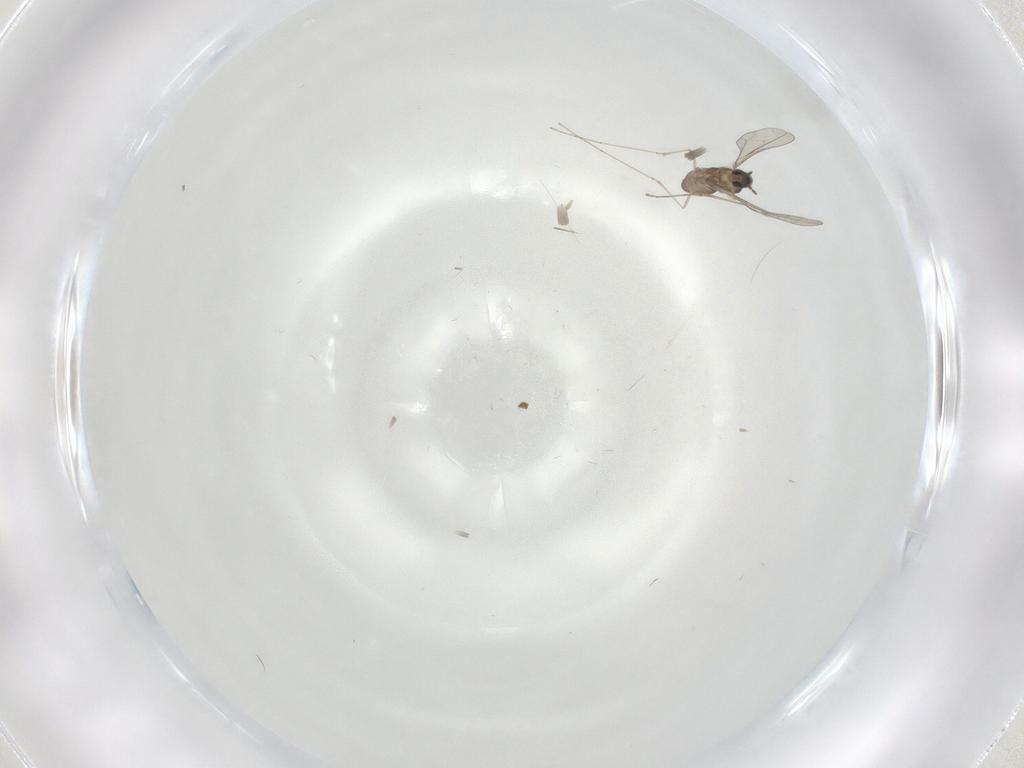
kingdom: Animalia
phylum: Arthropoda
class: Insecta
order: Diptera
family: Cecidomyiidae
